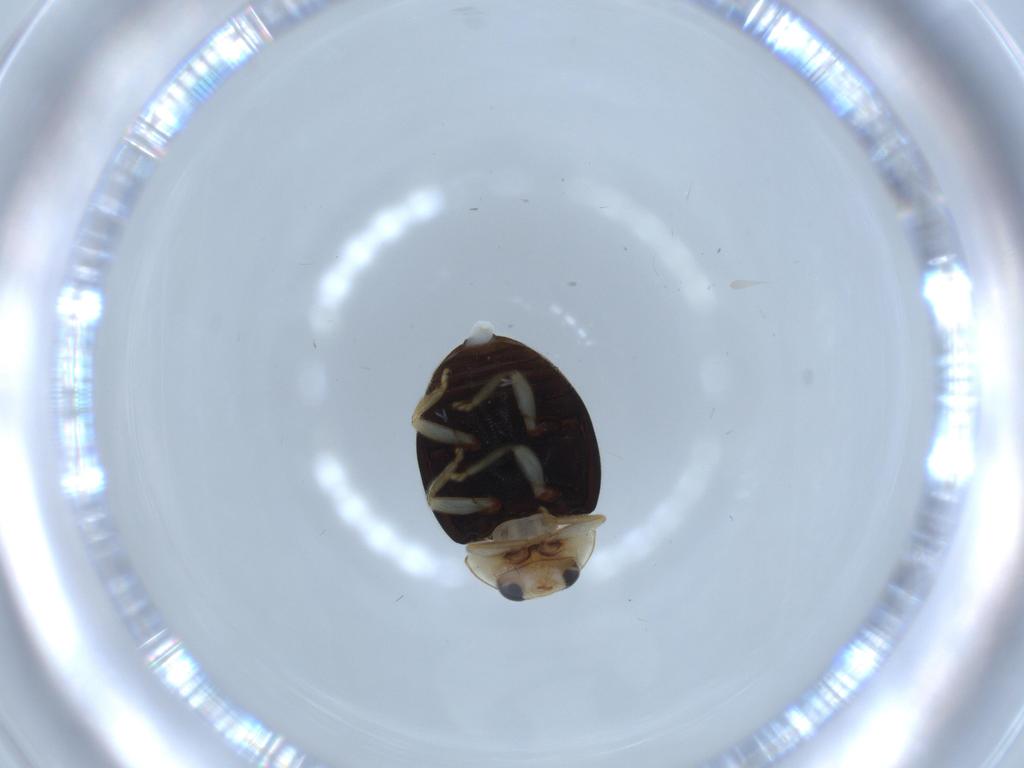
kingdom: Animalia
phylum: Arthropoda
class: Insecta
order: Coleoptera
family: Coccinellidae
